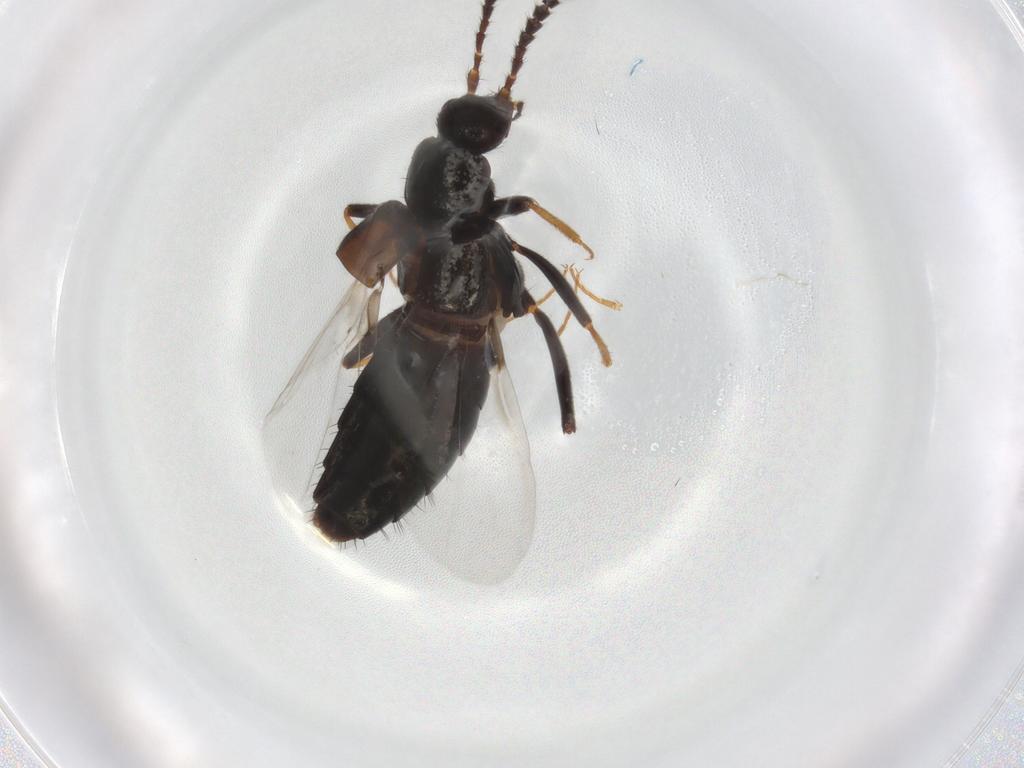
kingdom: Animalia
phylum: Arthropoda
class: Insecta
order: Coleoptera
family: Staphylinidae
